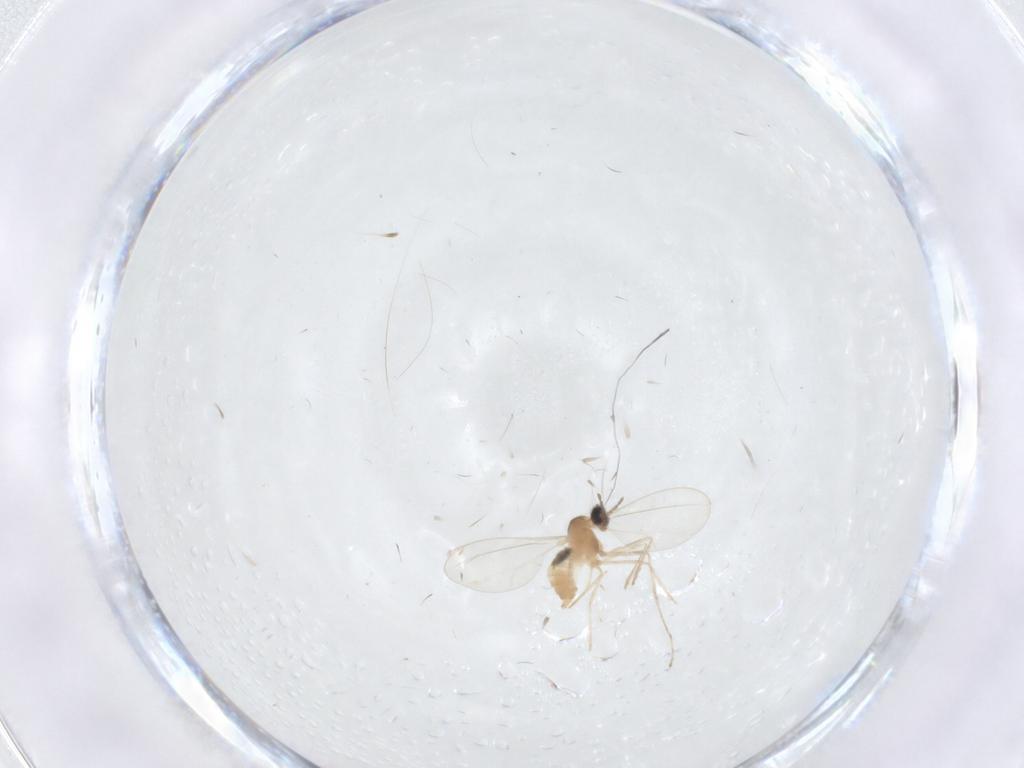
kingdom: Animalia
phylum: Arthropoda
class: Insecta
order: Diptera
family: Cecidomyiidae
